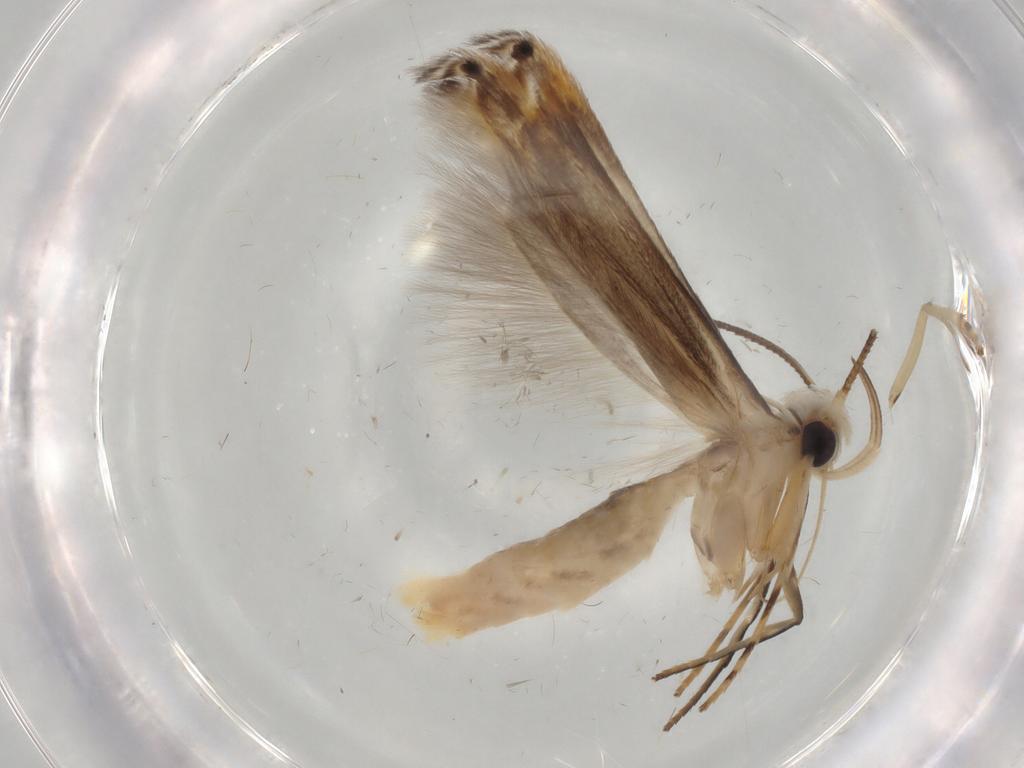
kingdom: Animalia
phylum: Arthropoda
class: Insecta
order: Lepidoptera
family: Gelechiidae
